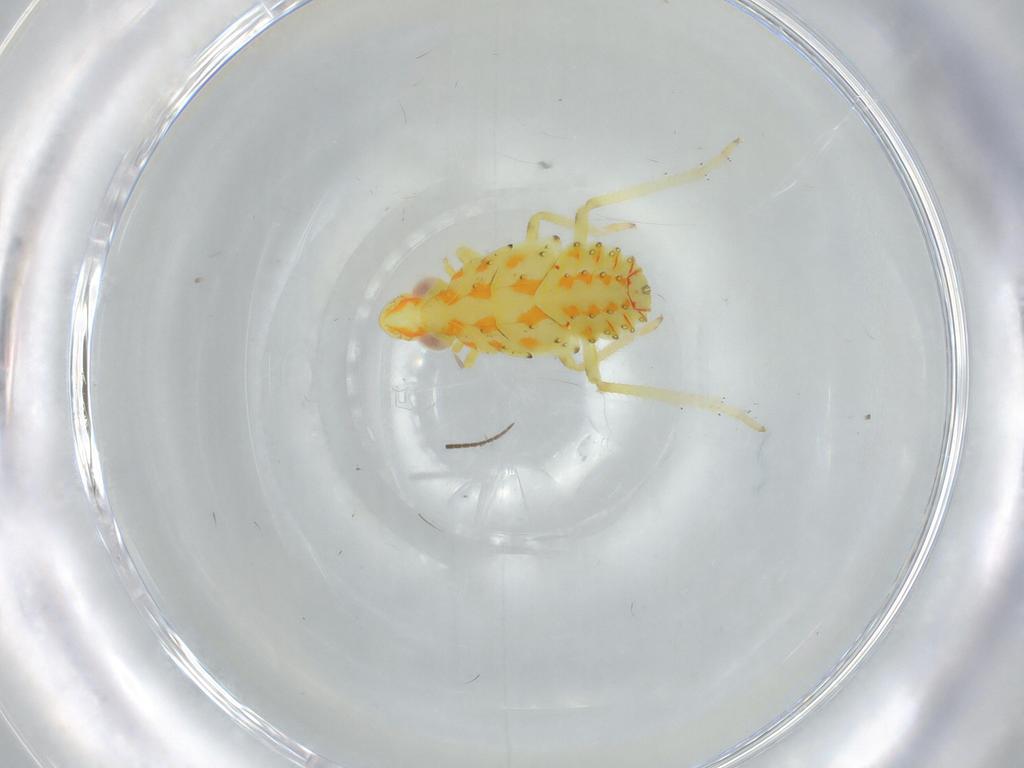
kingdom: Animalia
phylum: Arthropoda
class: Insecta
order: Hemiptera
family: Tropiduchidae
